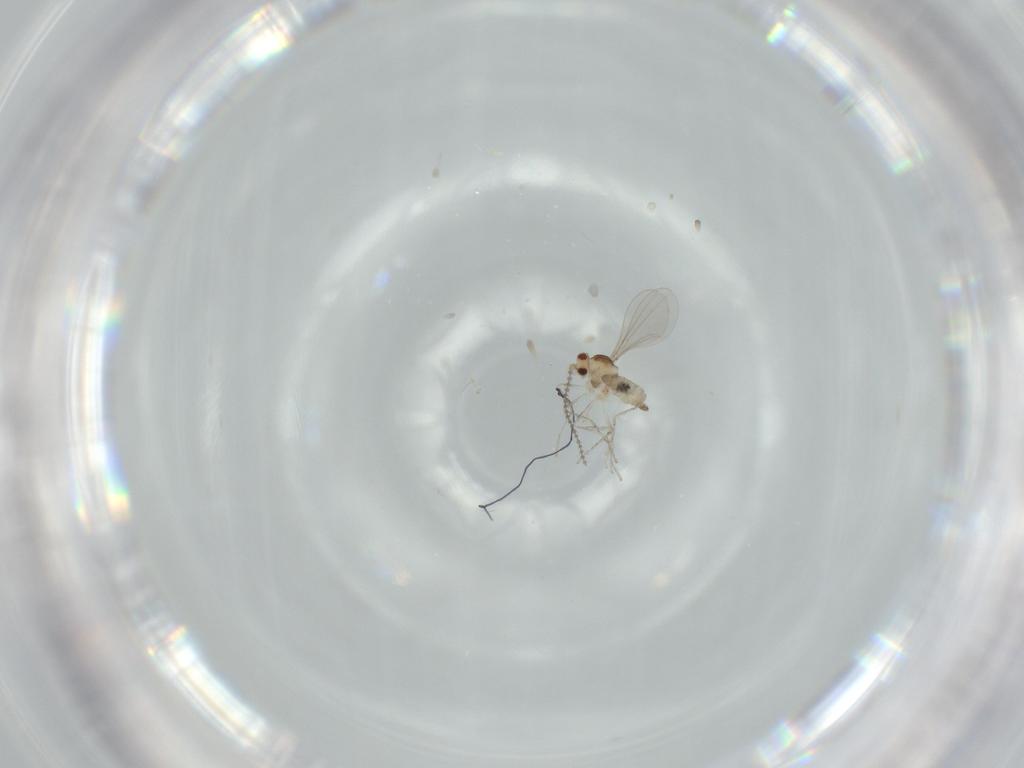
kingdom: Animalia
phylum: Arthropoda
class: Insecta
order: Diptera
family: Cecidomyiidae
